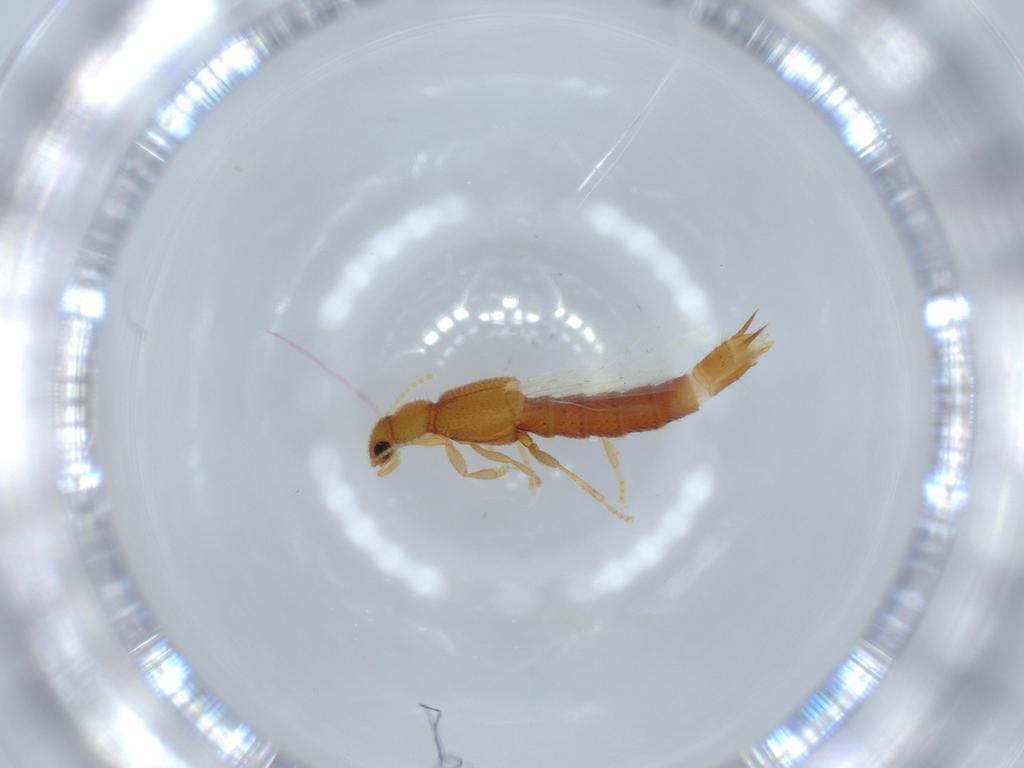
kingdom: Animalia
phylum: Arthropoda
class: Insecta
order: Coleoptera
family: Staphylinidae
